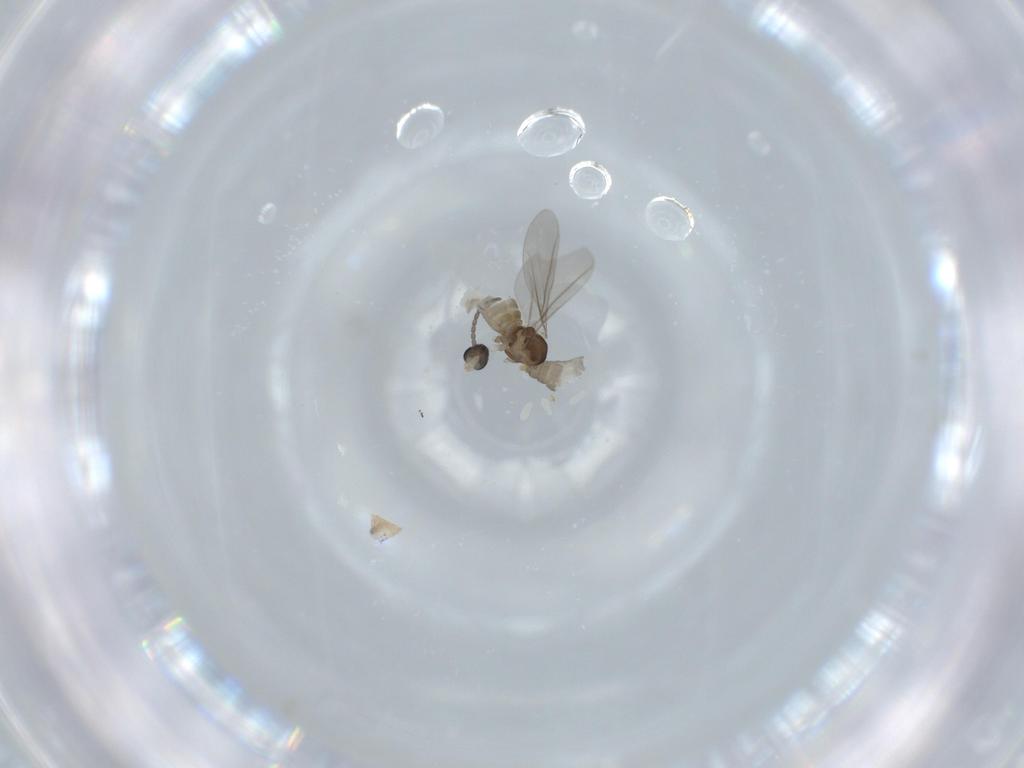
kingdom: Animalia
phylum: Arthropoda
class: Insecta
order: Diptera
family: Cecidomyiidae
